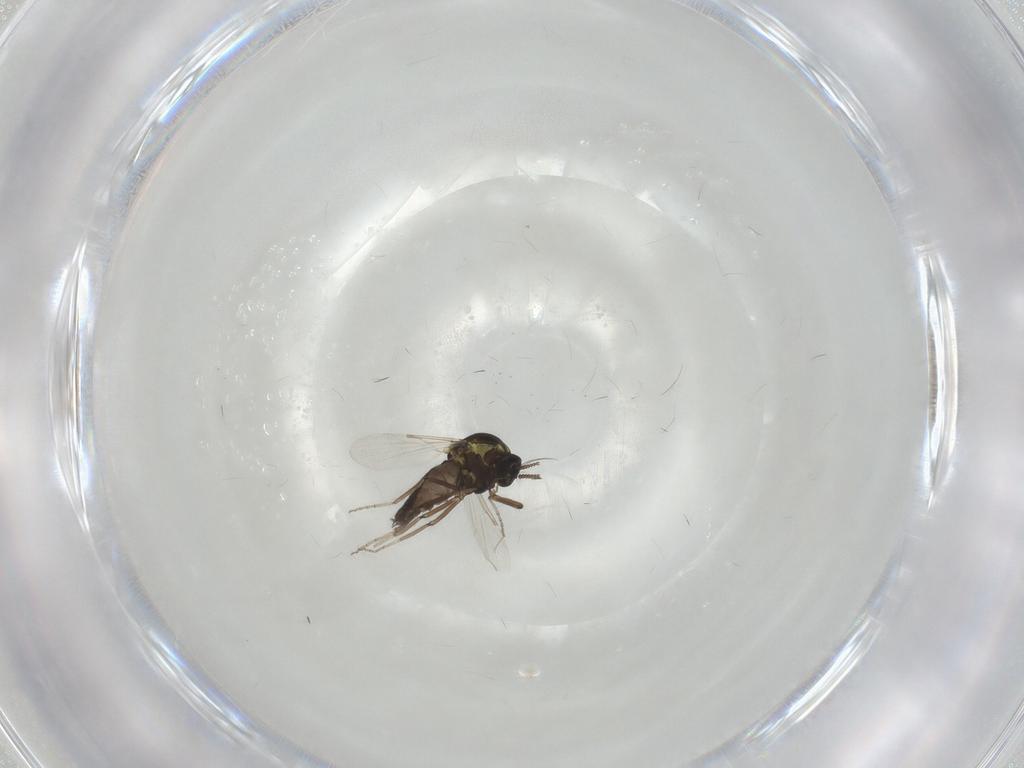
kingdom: Animalia
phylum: Arthropoda
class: Insecta
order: Diptera
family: Ceratopogonidae
